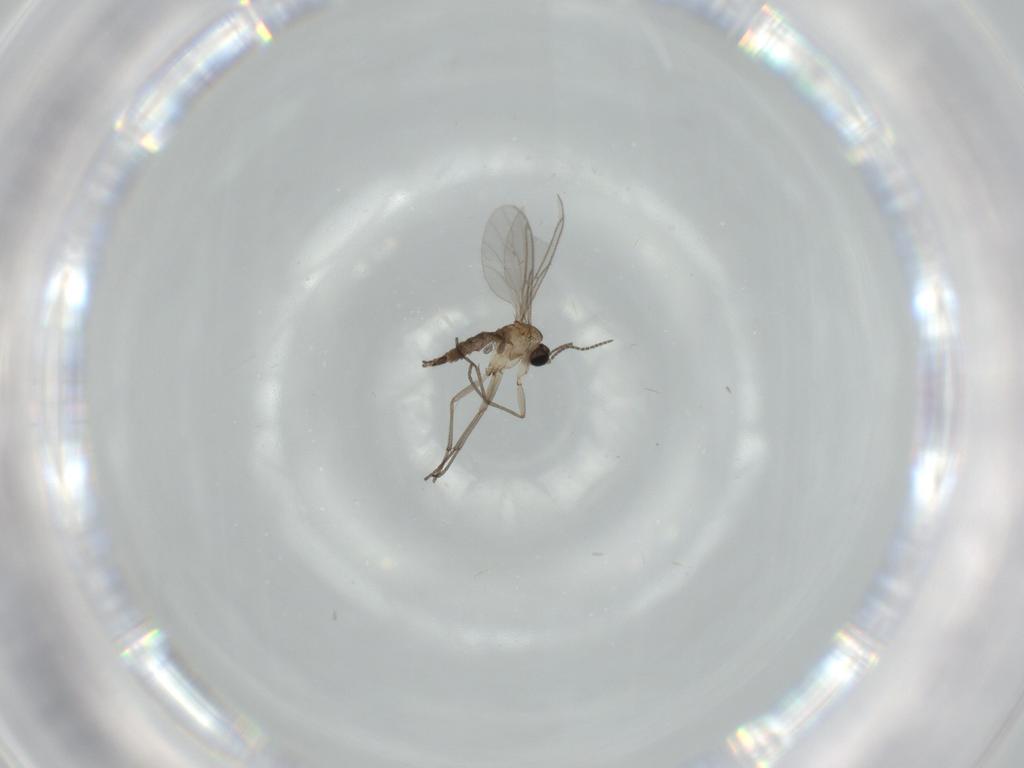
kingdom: Animalia
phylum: Arthropoda
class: Insecta
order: Diptera
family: Sciaridae
